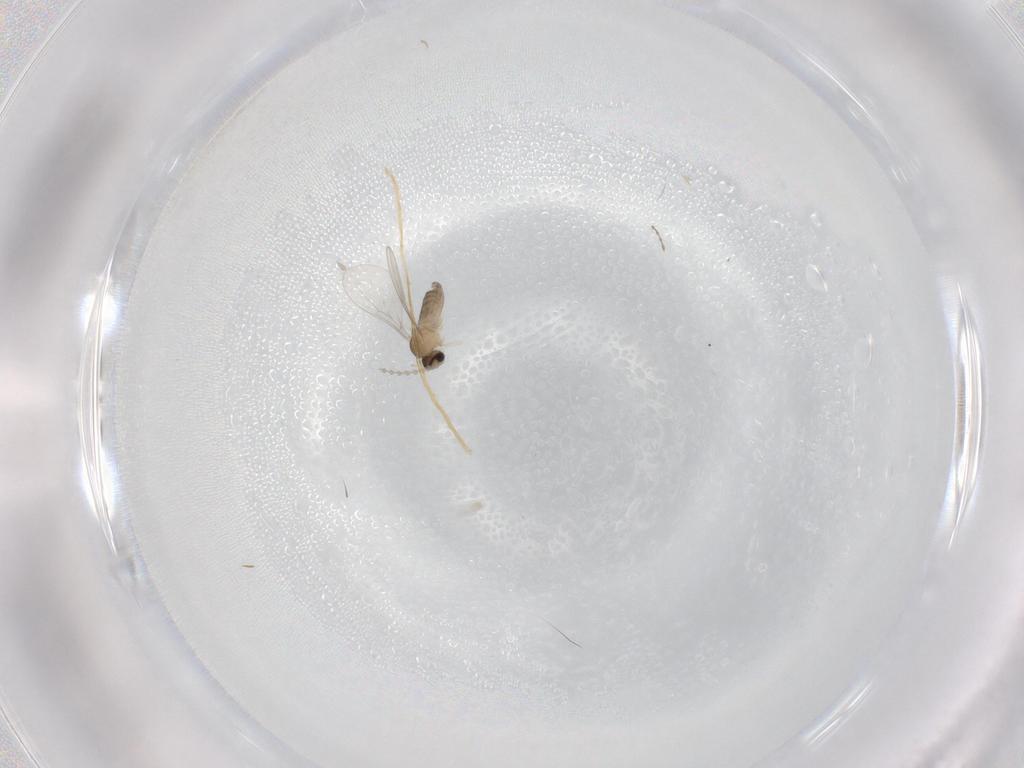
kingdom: Animalia
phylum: Arthropoda
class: Insecta
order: Diptera
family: Cecidomyiidae
